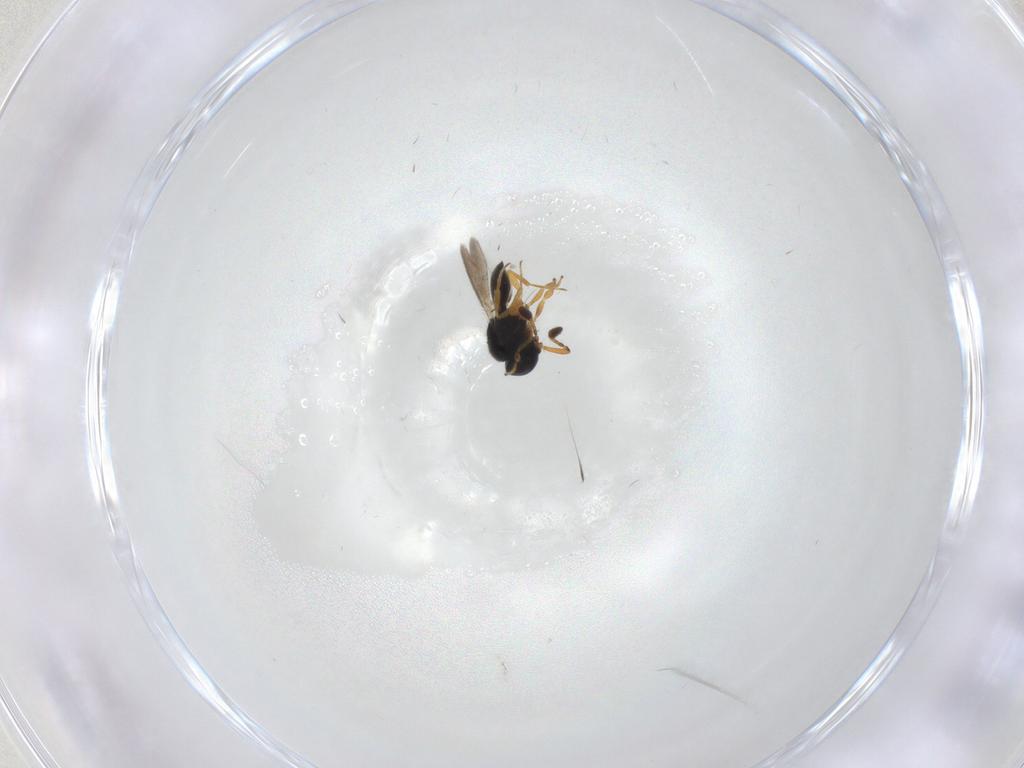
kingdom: Animalia
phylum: Arthropoda
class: Insecta
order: Hymenoptera
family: Scelionidae
